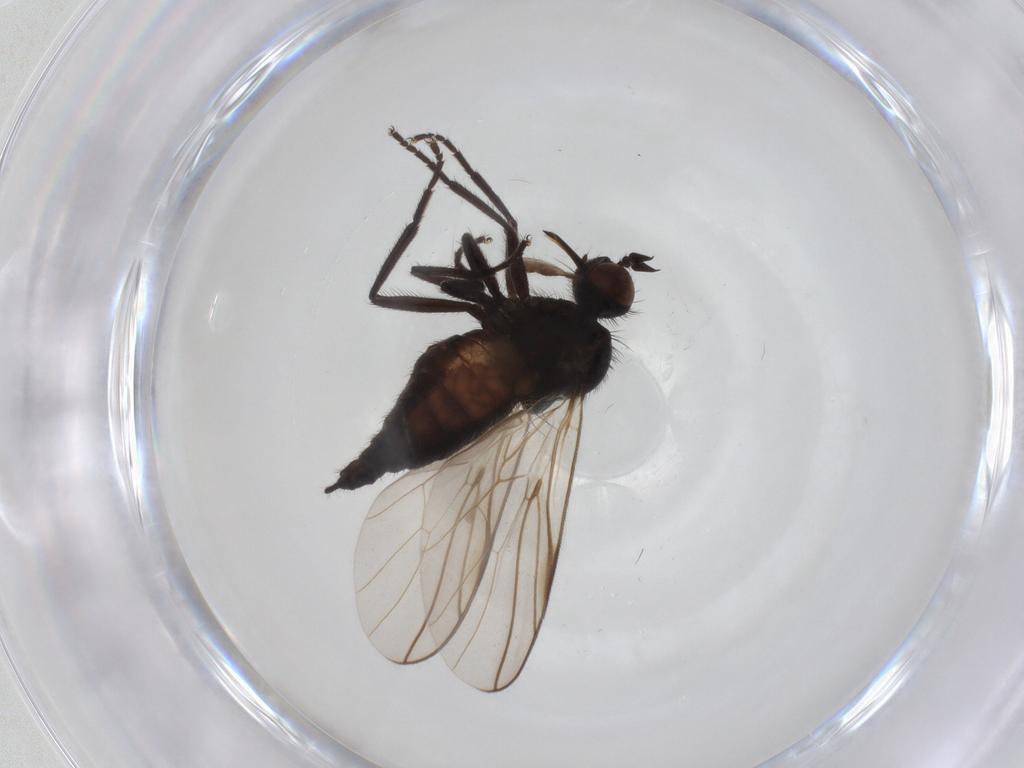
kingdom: Animalia
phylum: Arthropoda
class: Insecta
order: Diptera
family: Empididae
